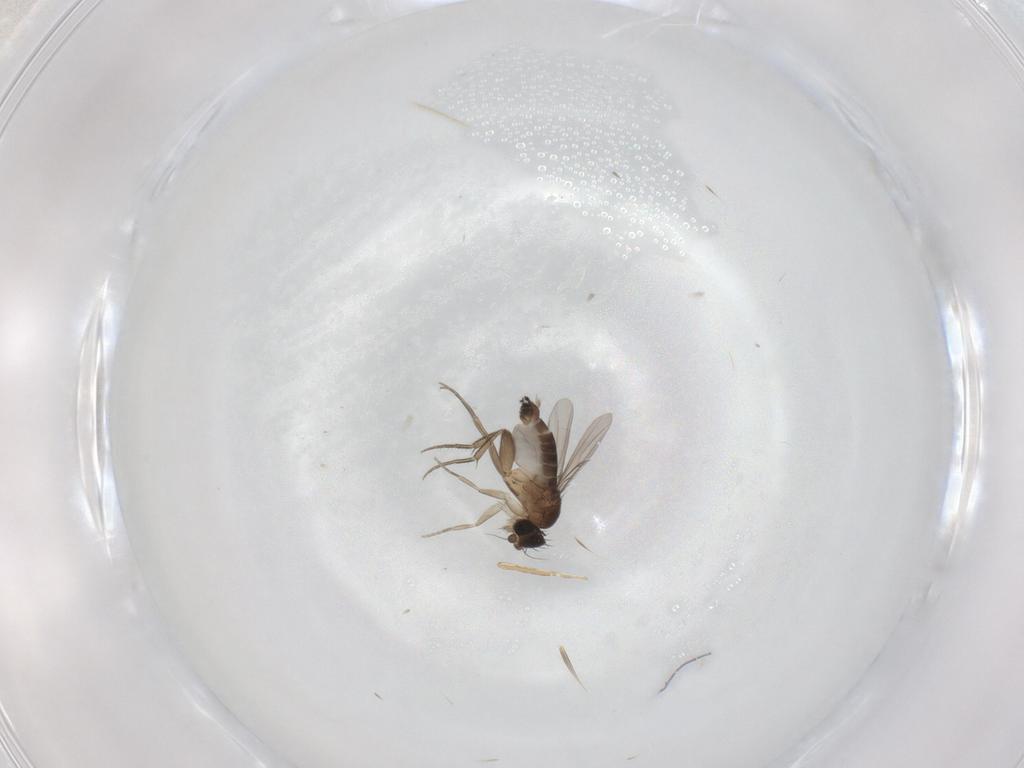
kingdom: Animalia
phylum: Arthropoda
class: Insecta
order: Diptera
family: Phoridae
